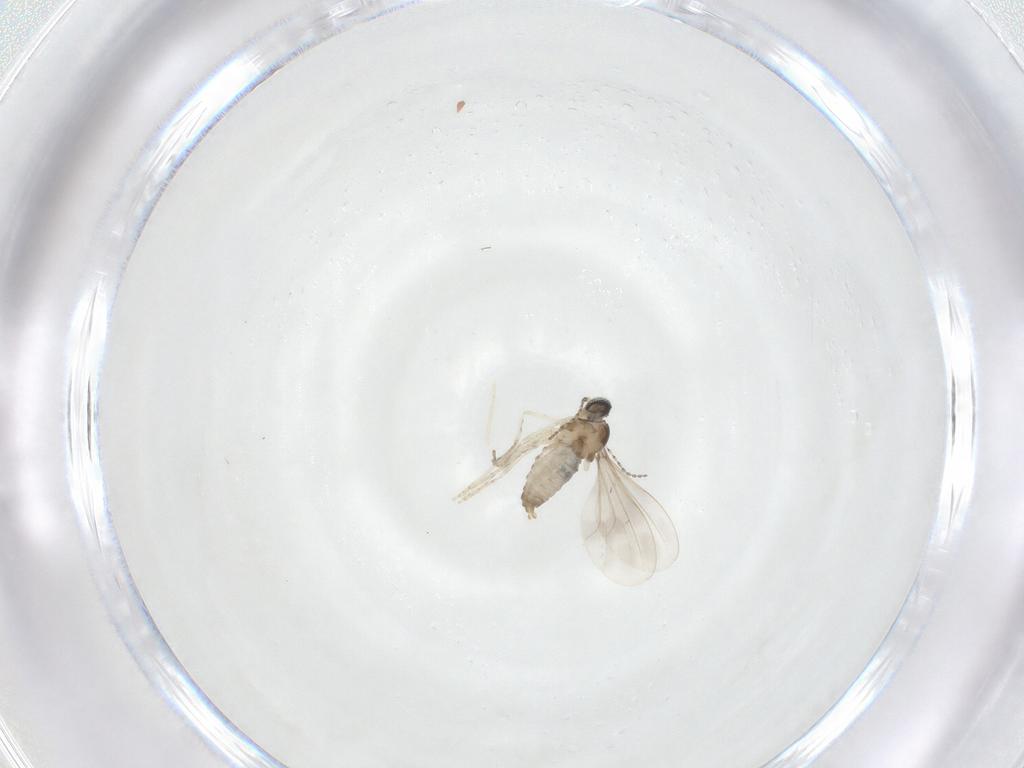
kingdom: Animalia
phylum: Arthropoda
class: Insecta
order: Diptera
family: Cecidomyiidae
